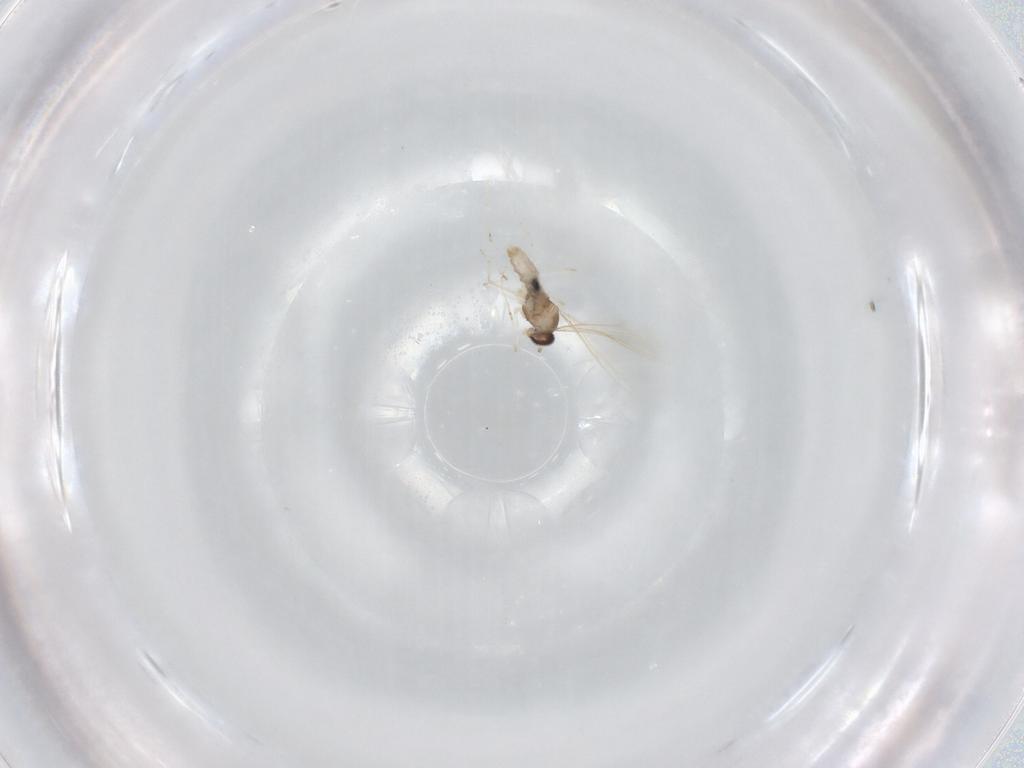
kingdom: Animalia
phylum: Arthropoda
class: Insecta
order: Diptera
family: Cecidomyiidae
